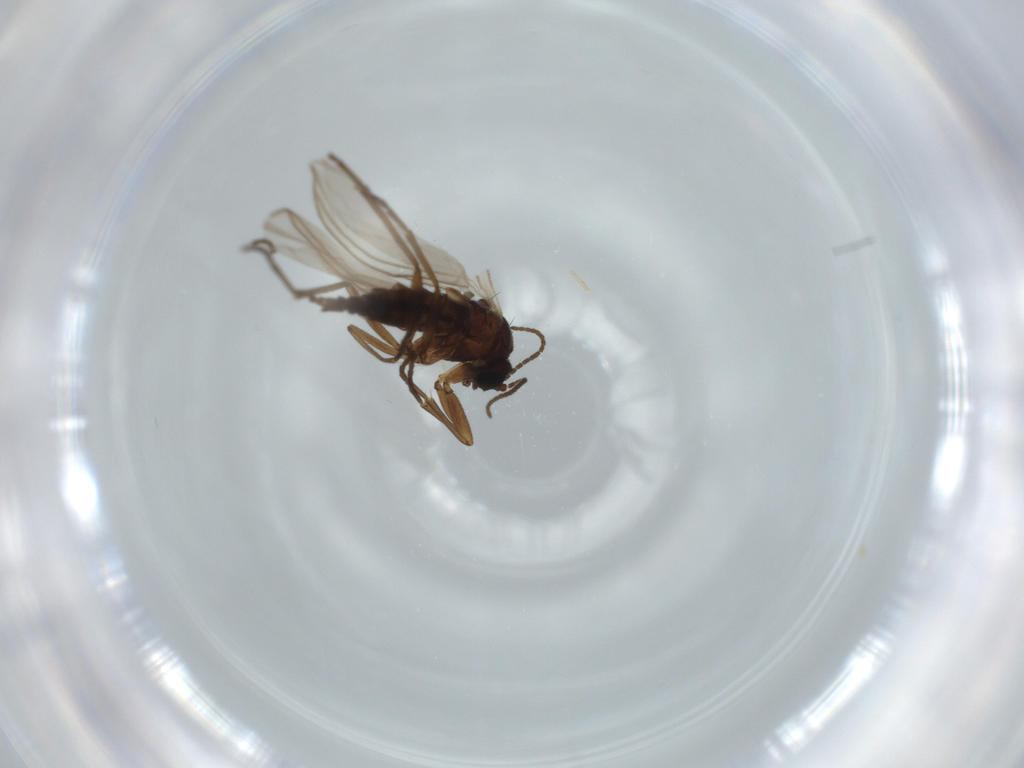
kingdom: Animalia
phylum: Arthropoda
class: Insecta
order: Diptera
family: Sciaridae
